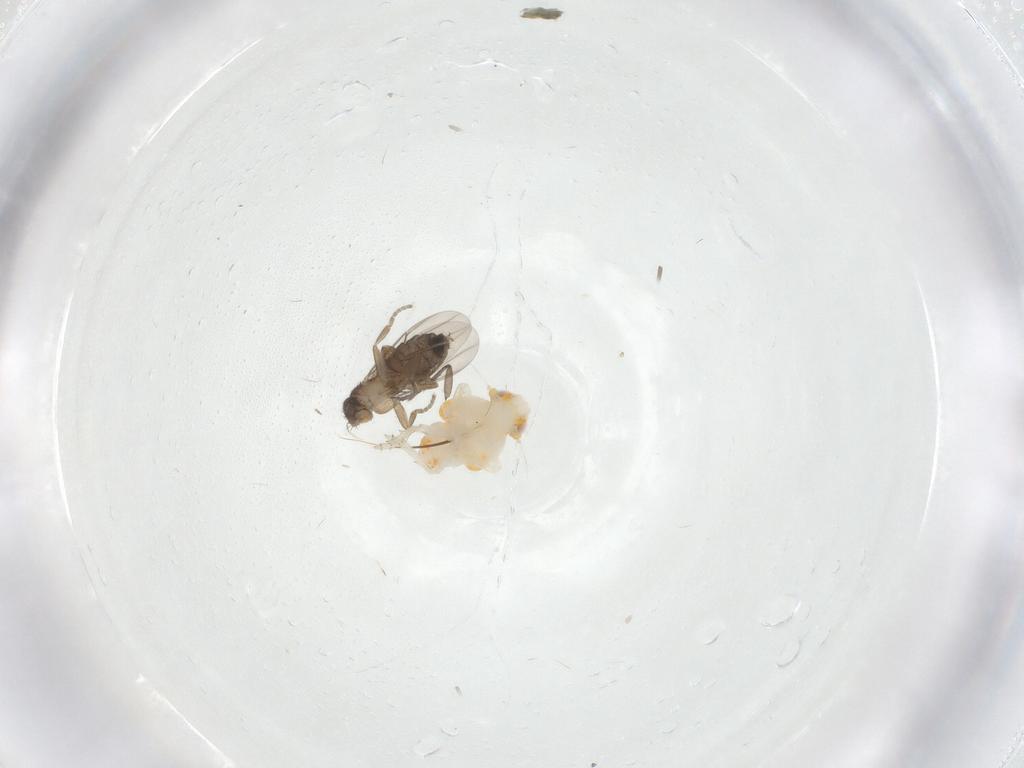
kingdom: Animalia
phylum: Arthropoda
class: Insecta
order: Diptera
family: Phoridae
